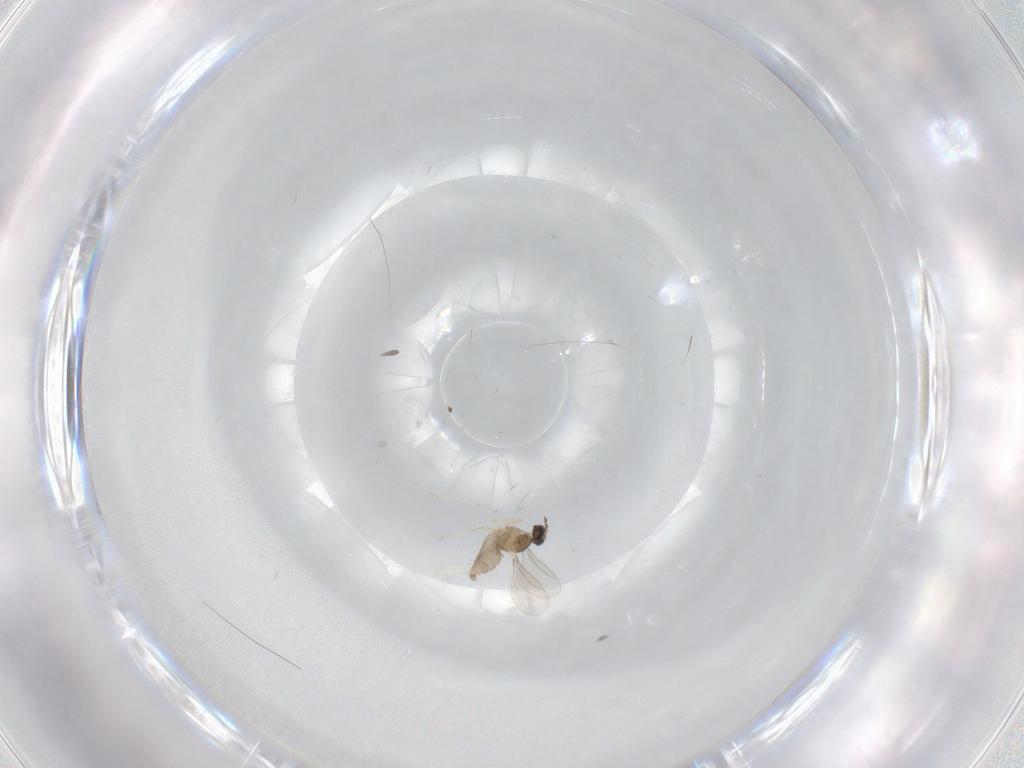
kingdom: Animalia
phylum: Arthropoda
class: Insecta
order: Diptera
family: Cecidomyiidae
